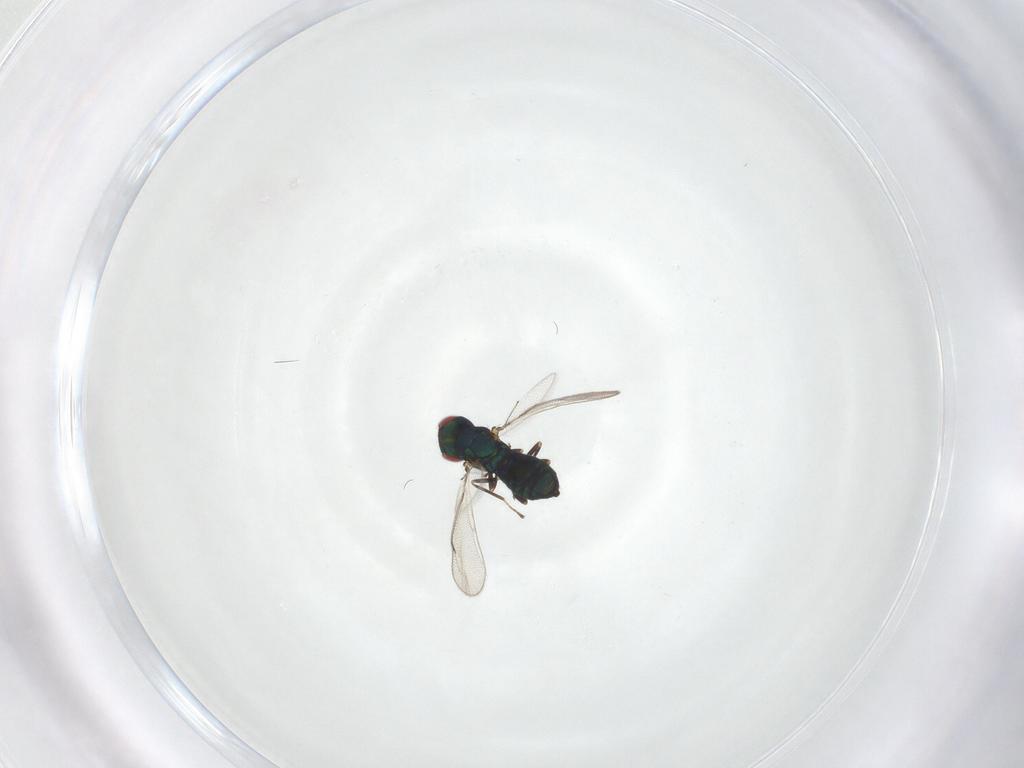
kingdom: Animalia
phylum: Arthropoda
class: Insecta
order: Hymenoptera
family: Eulophidae
